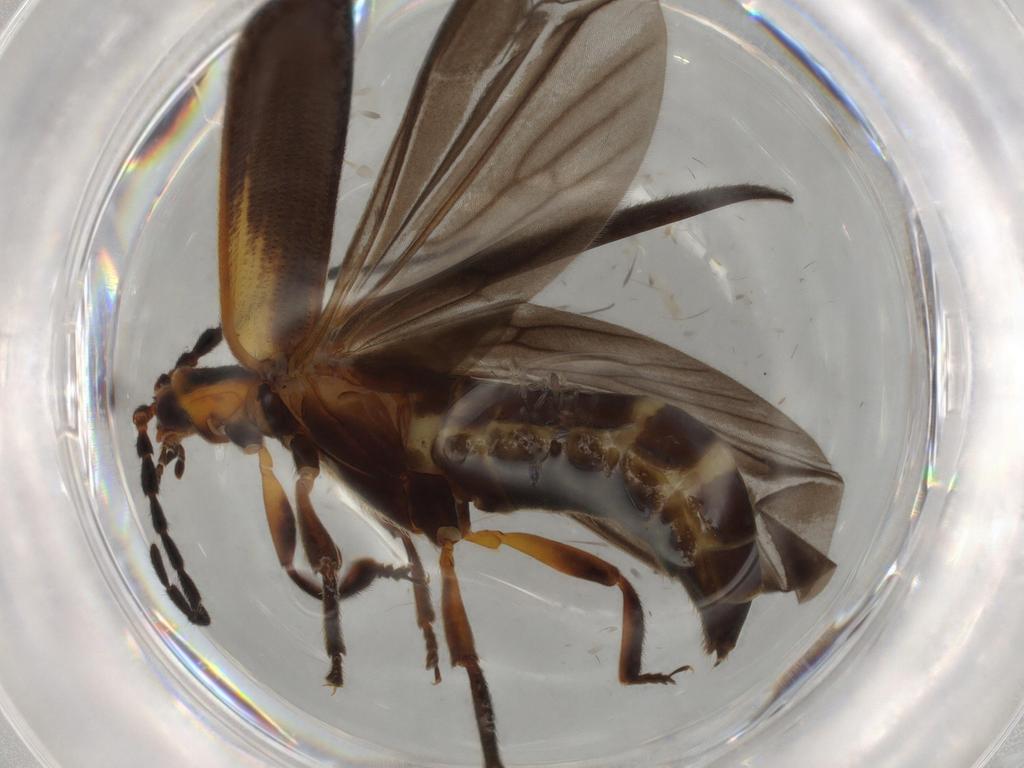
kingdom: Animalia
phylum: Arthropoda
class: Insecta
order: Coleoptera
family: Lycidae
